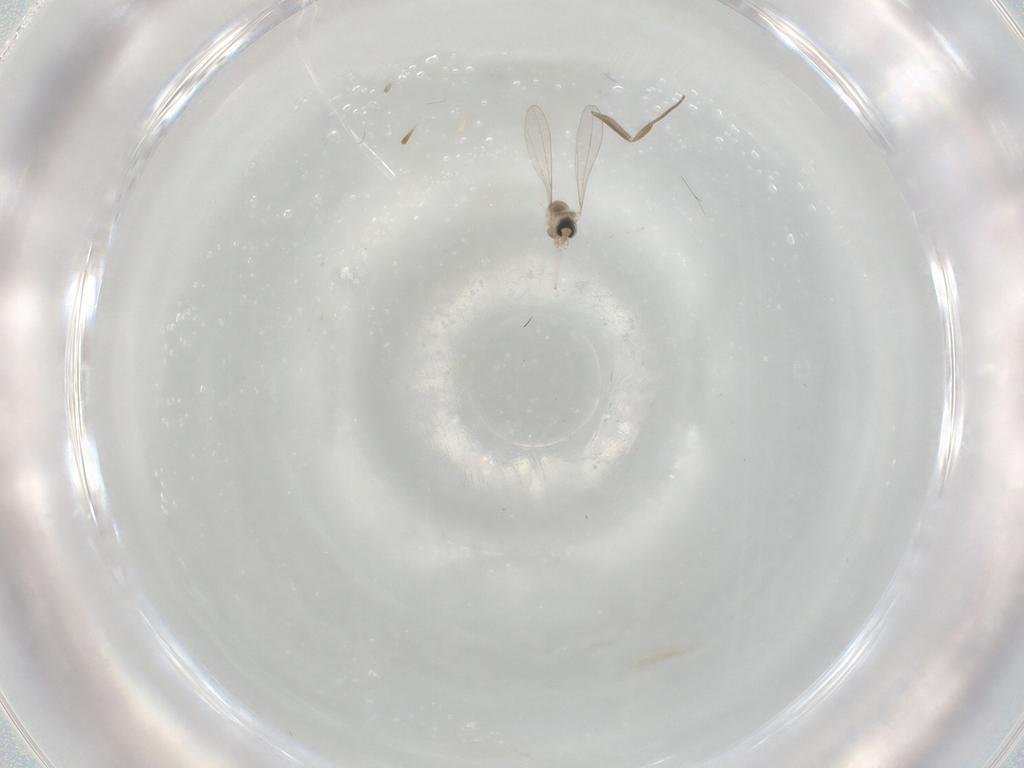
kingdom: Animalia
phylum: Arthropoda
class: Insecta
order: Diptera
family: Cecidomyiidae
